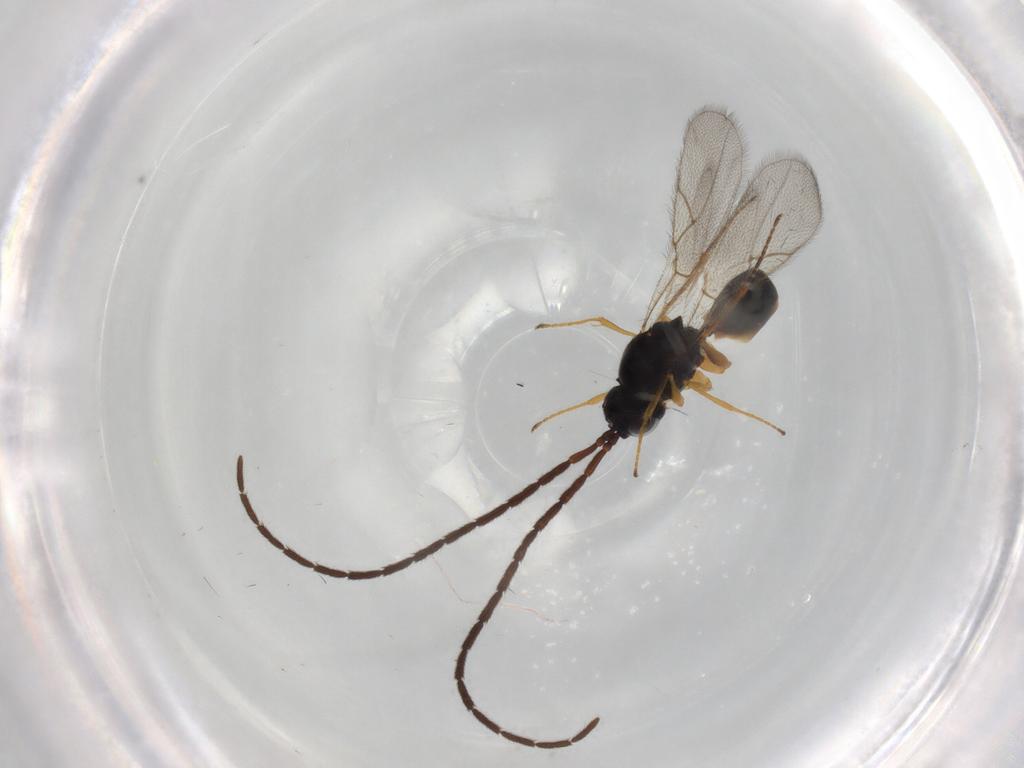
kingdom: Animalia
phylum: Arthropoda
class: Insecta
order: Hymenoptera
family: Figitidae
